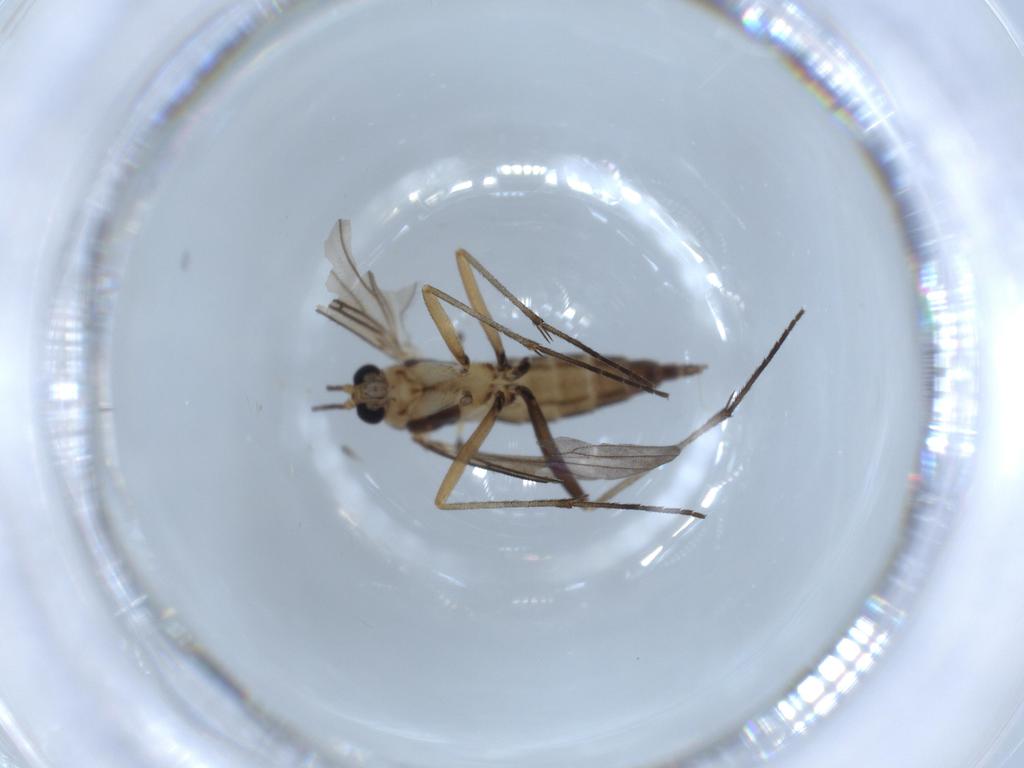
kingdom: Animalia
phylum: Arthropoda
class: Insecta
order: Diptera
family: Sciaridae
